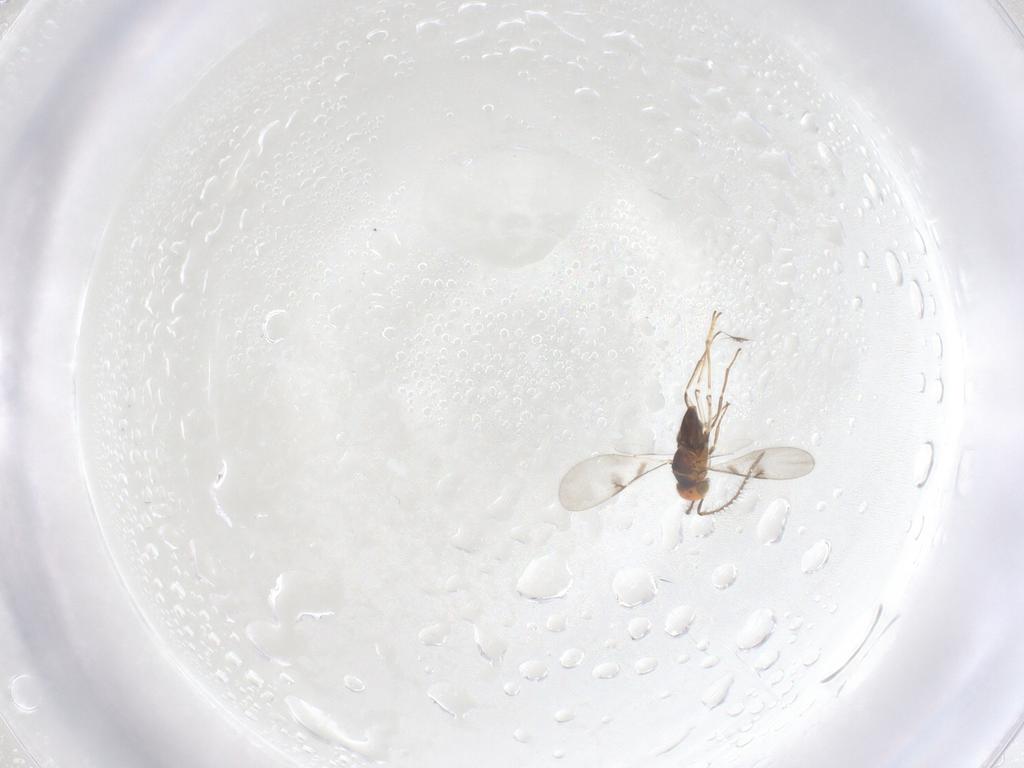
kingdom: Animalia
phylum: Arthropoda
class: Insecta
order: Hymenoptera
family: Encyrtidae
